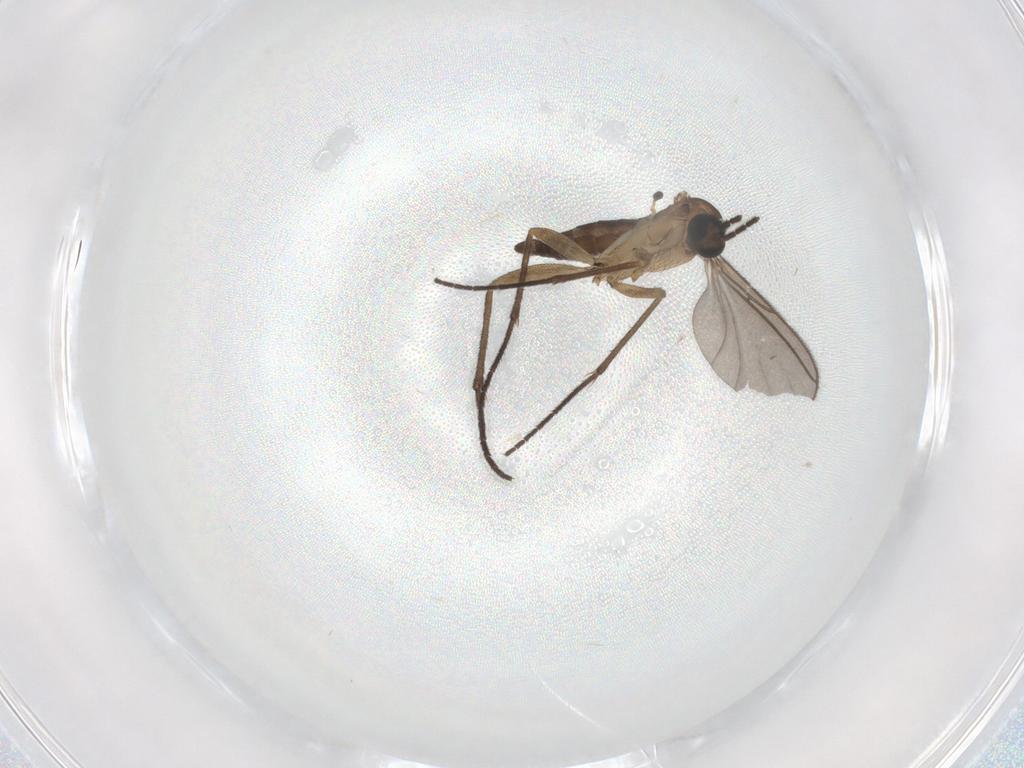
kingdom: Animalia
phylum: Arthropoda
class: Insecta
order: Diptera
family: Sciaridae
